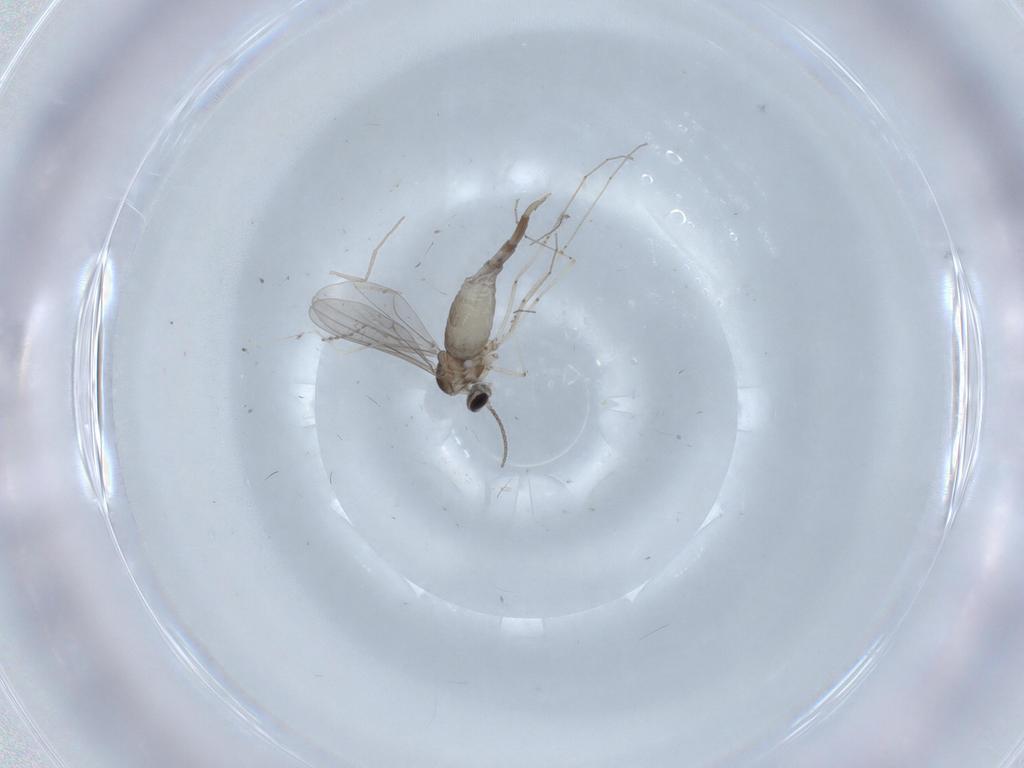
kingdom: Animalia
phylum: Arthropoda
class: Insecta
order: Diptera
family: Cecidomyiidae
